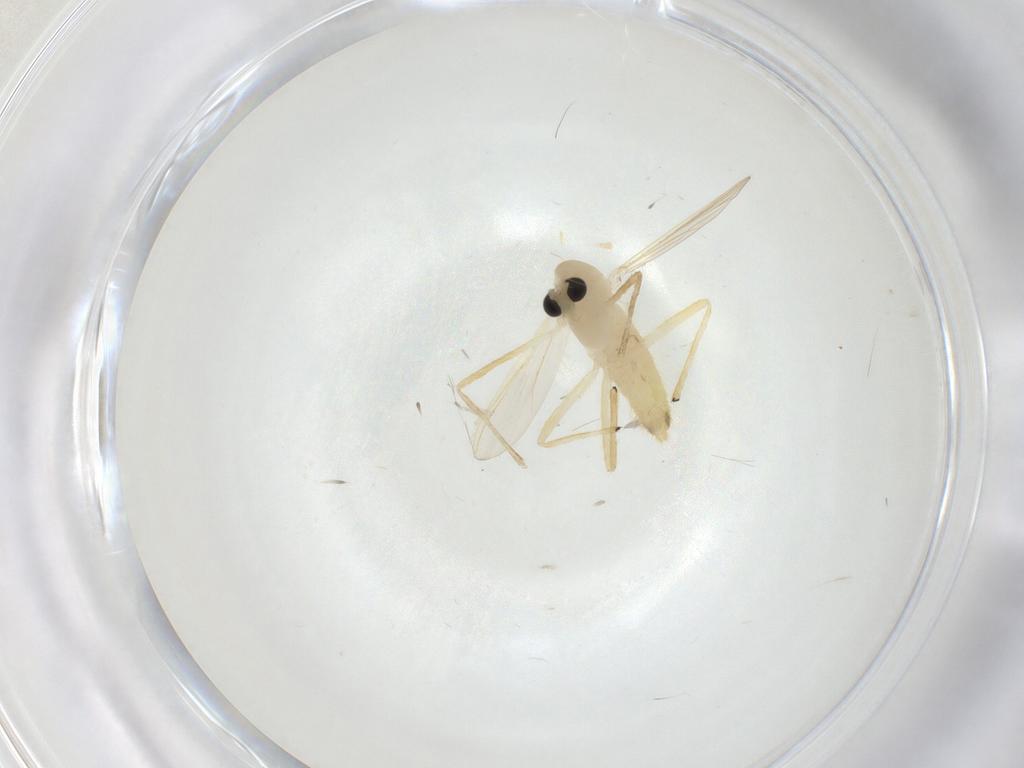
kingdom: Animalia
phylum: Arthropoda
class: Insecta
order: Diptera
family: Chironomidae
